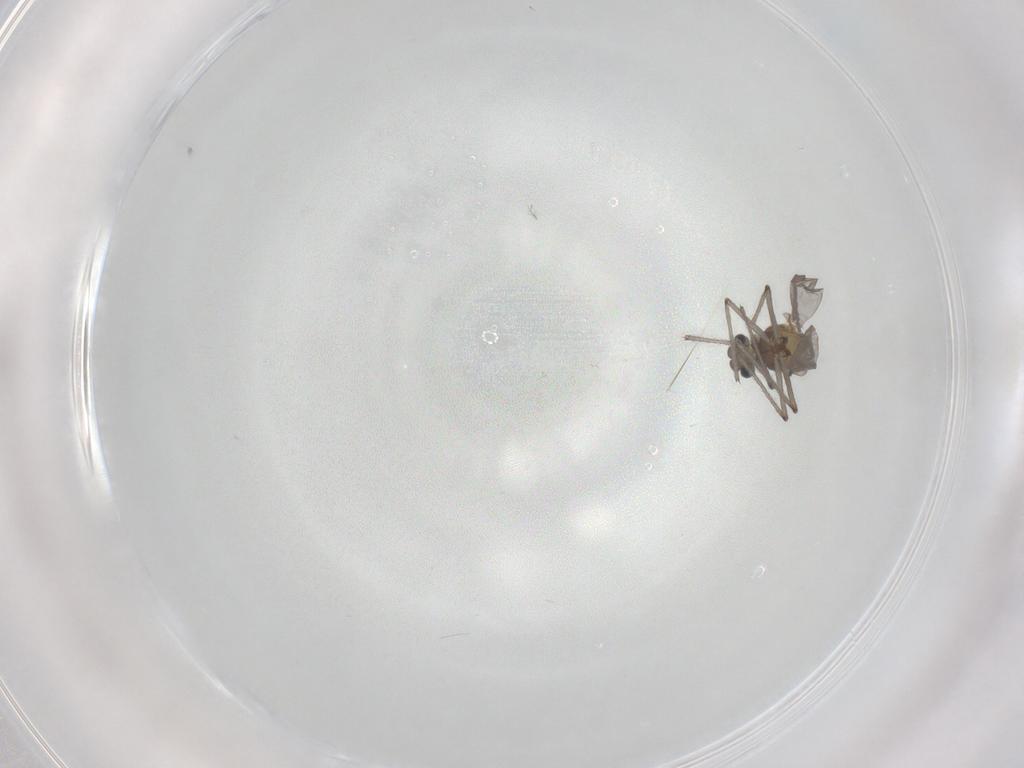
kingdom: Animalia
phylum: Arthropoda
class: Insecta
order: Diptera
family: Chironomidae
